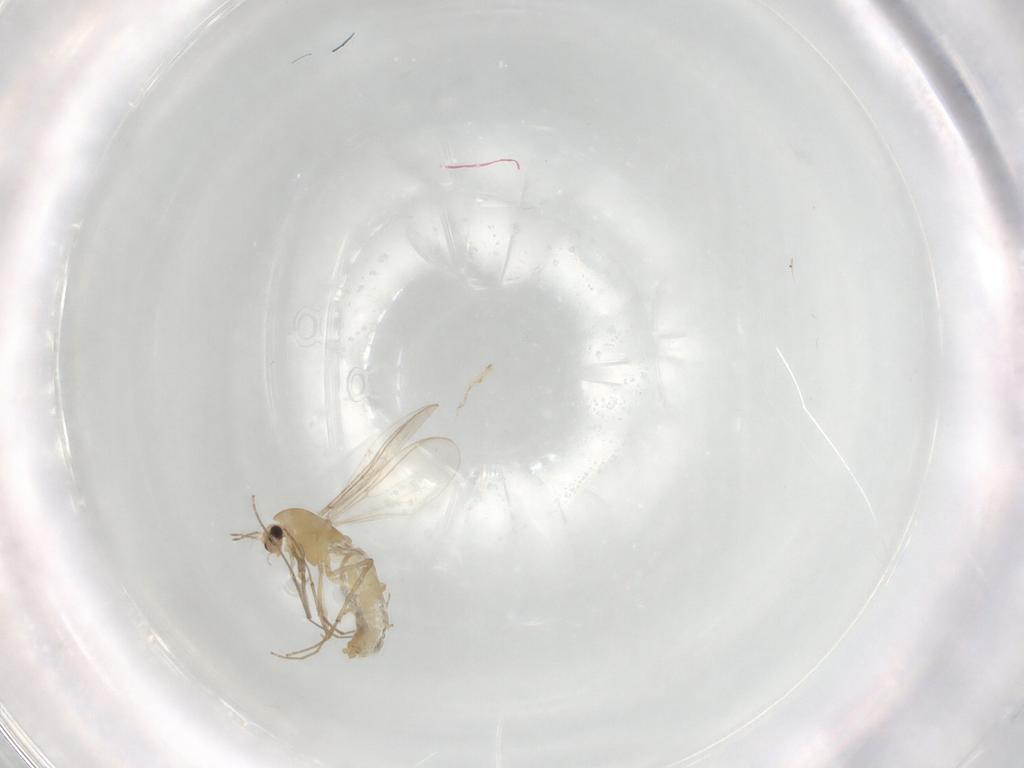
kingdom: Animalia
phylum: Arthropoda
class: Insecta
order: Diptera
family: Chironomidae
